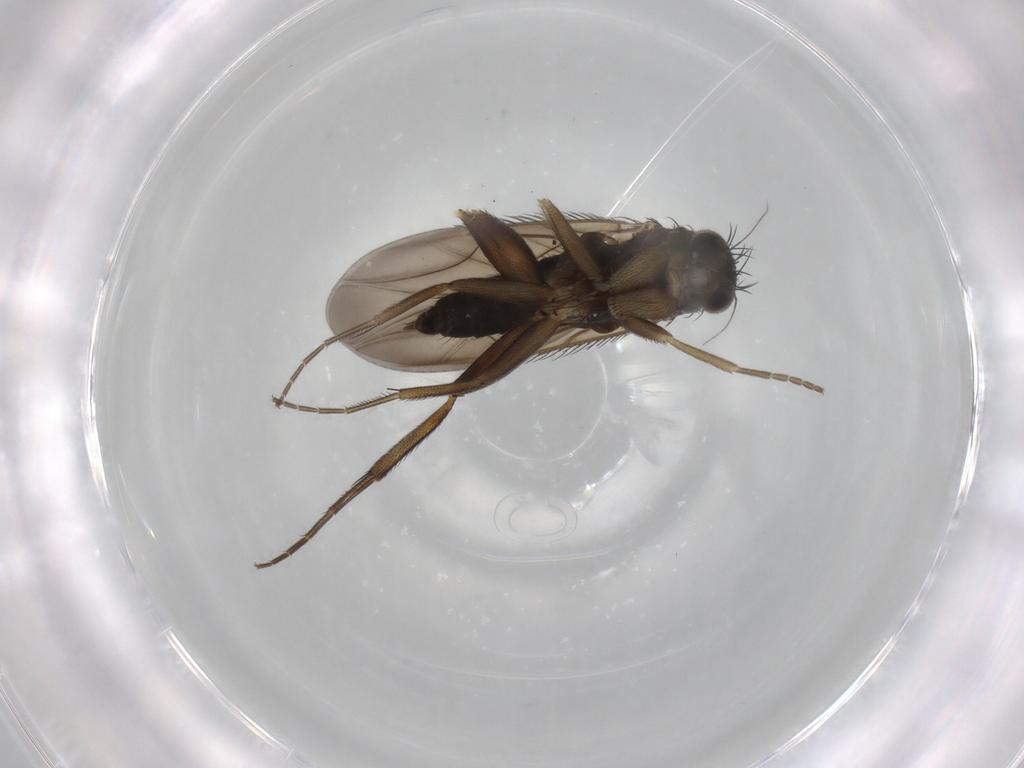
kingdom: Animalia
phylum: Arthropoda
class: Insecta
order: Diptera
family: Phoridae
